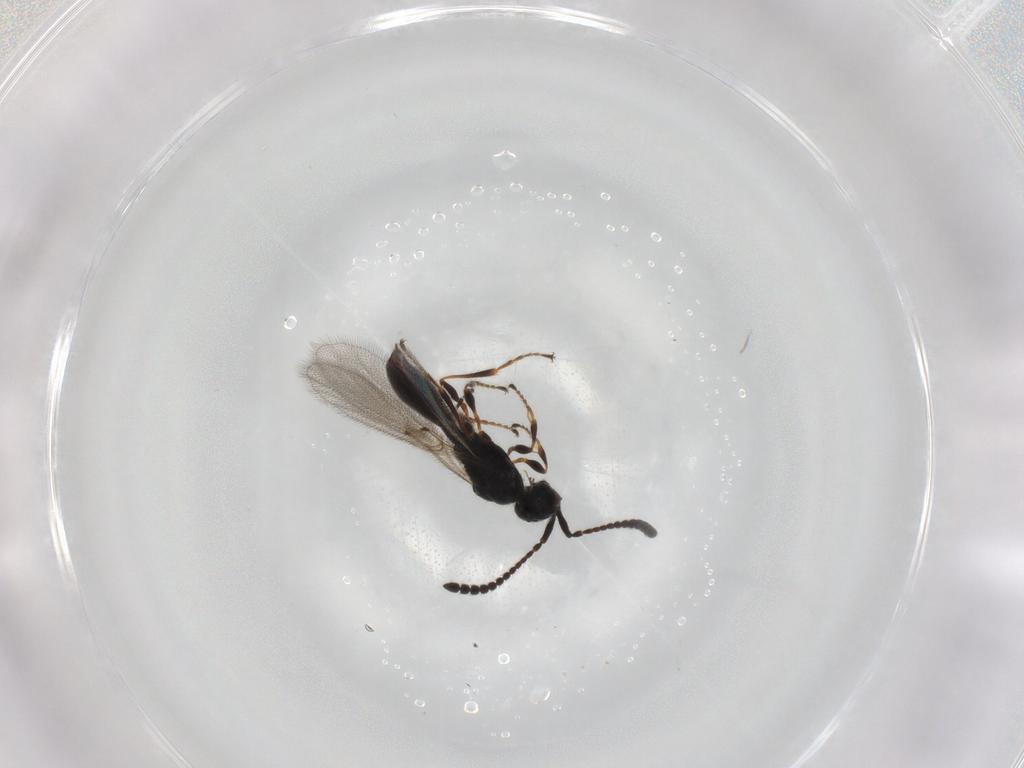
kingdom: Animalia
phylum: Arthropoda
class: Insecta
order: Hymenoptera
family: Diapriidae
